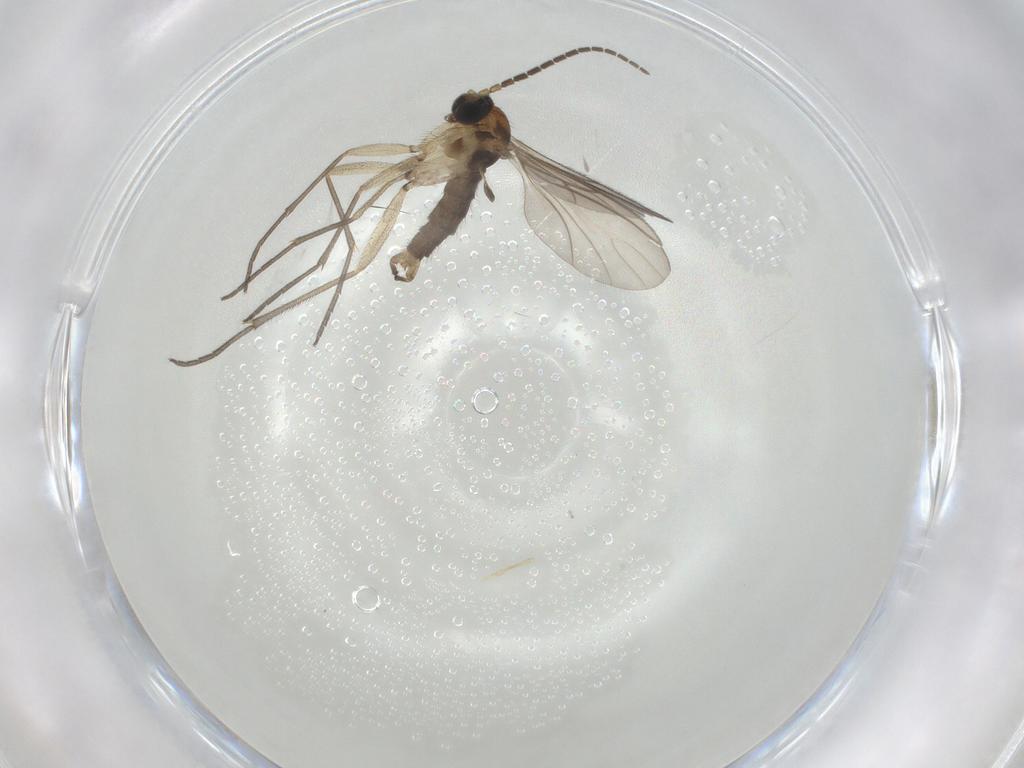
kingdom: Animalia
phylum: Arthropoda
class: Insecta
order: Diptera
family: Sciaridae
